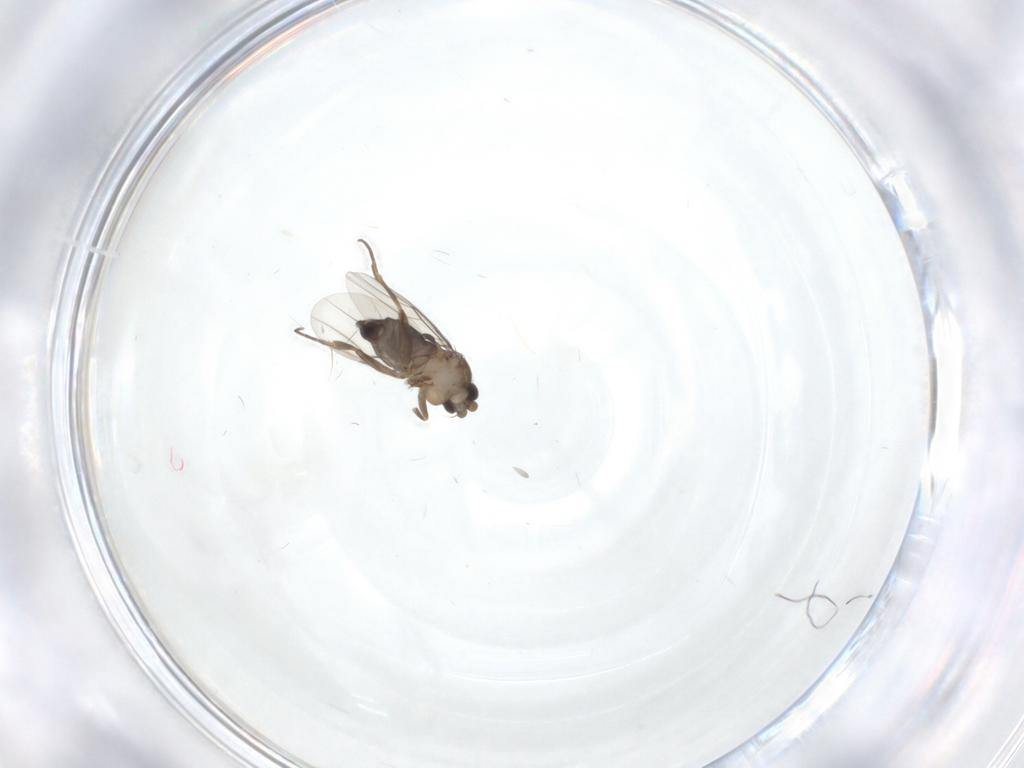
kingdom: Animalia
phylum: Arthropoda
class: Insecta
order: Diptera
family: Phoridae
